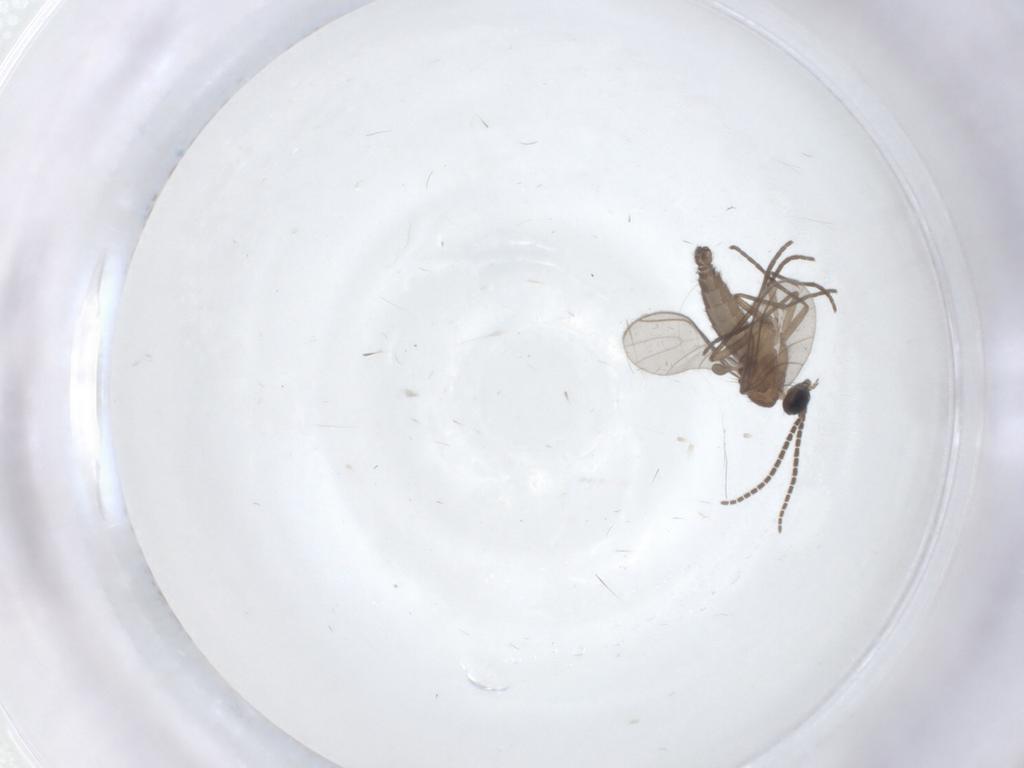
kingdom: Animalia
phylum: Arthropoda
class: Insecta
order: Diptera
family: Sciaridae
